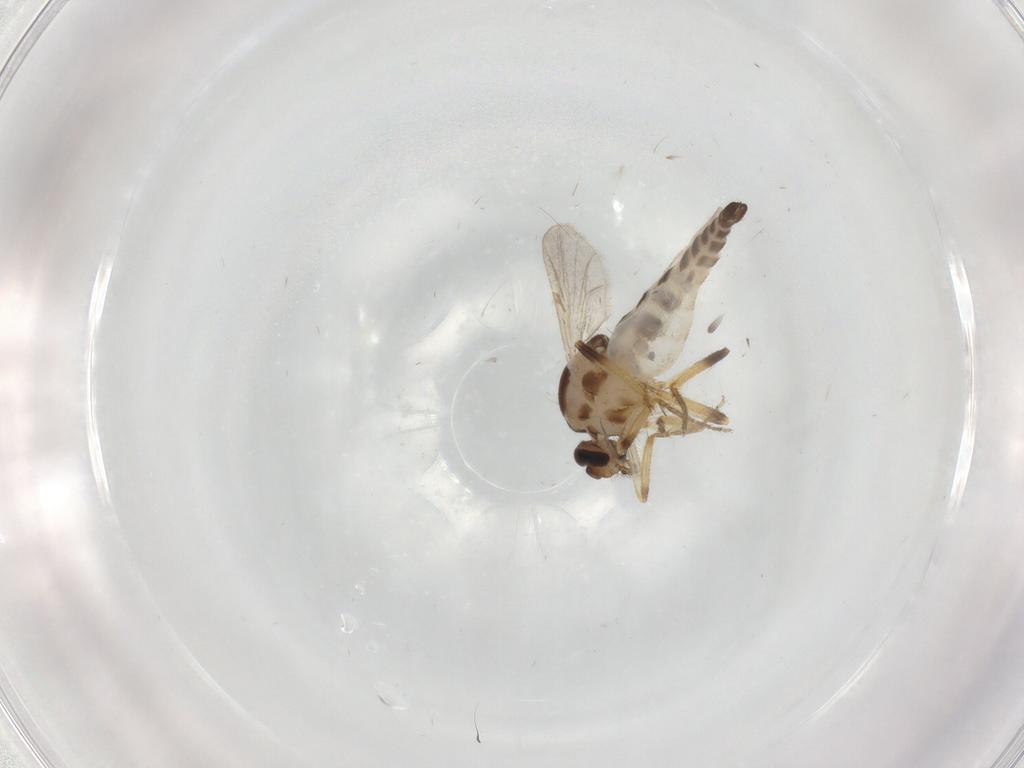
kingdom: Animalia
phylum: Arthropoda
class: Insecta
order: Diptera
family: Ceratopogonidae
